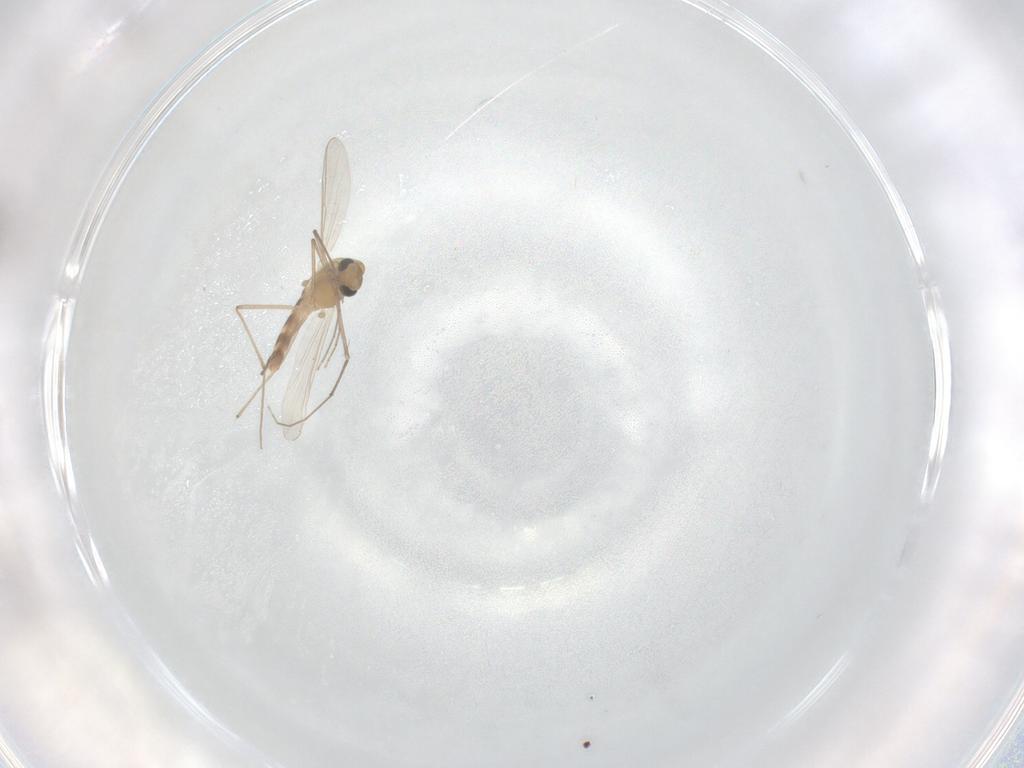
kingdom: Animalia
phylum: Arthropoda
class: Insecta
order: Diptera
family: Chironomidae
